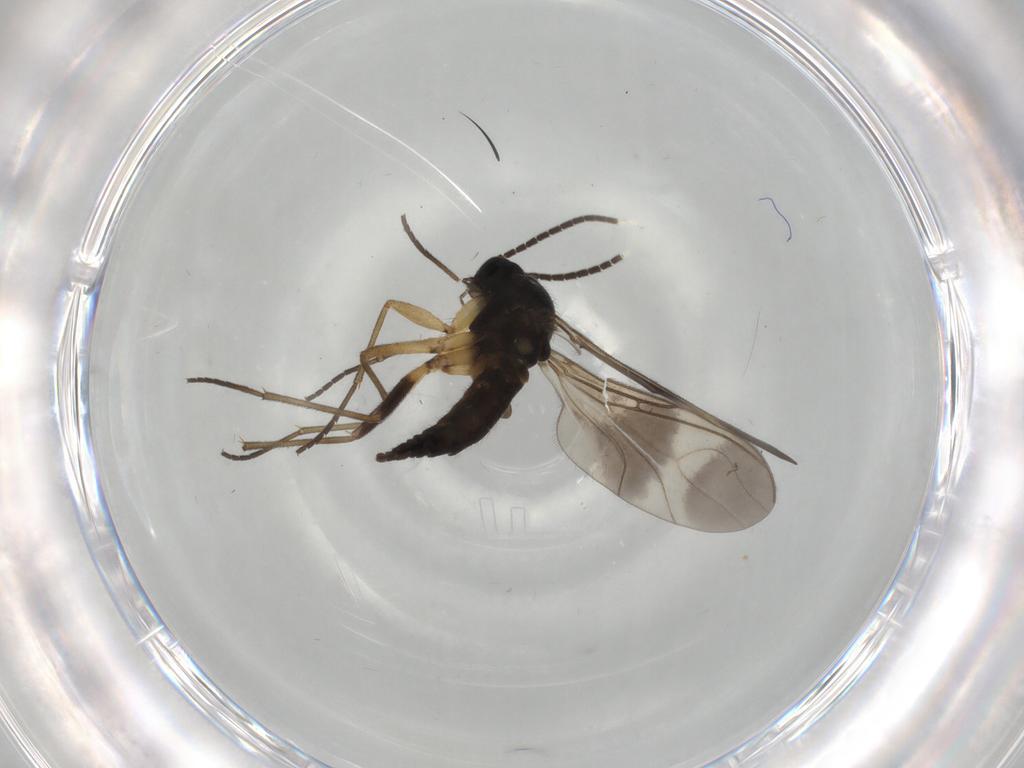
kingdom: Animalia
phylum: Arthropoda
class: Insecta
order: Diptera
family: Sciaridae
